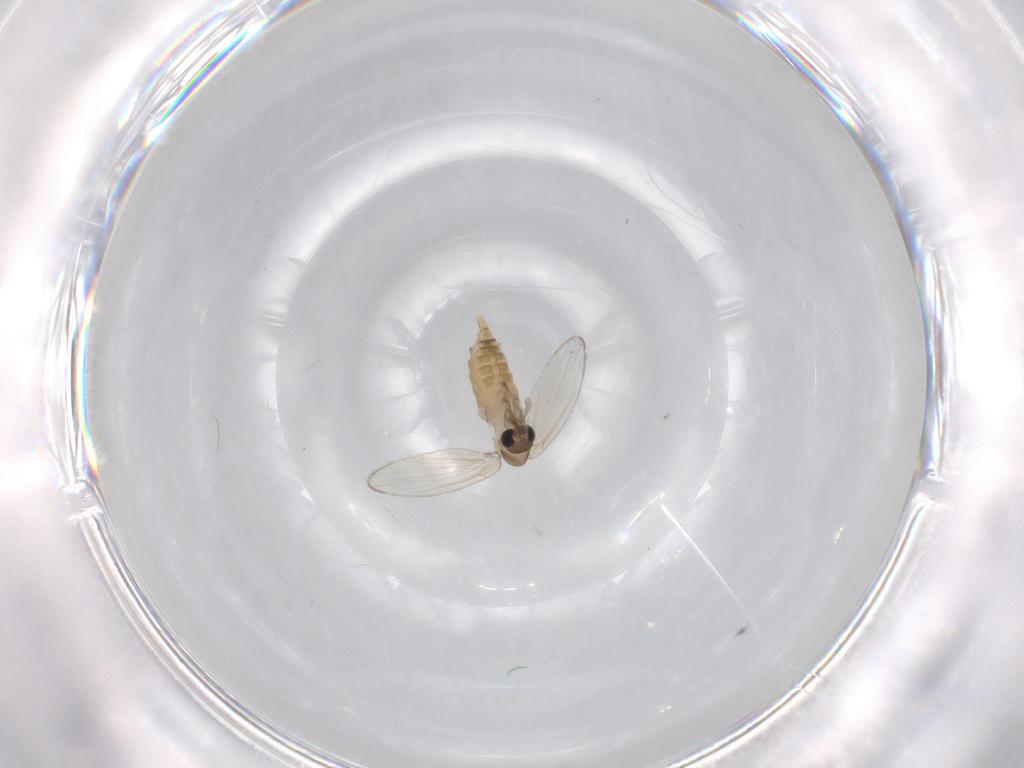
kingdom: Animalia
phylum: Arthropoda
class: Insecta
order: Diptera
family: Psychodidae
